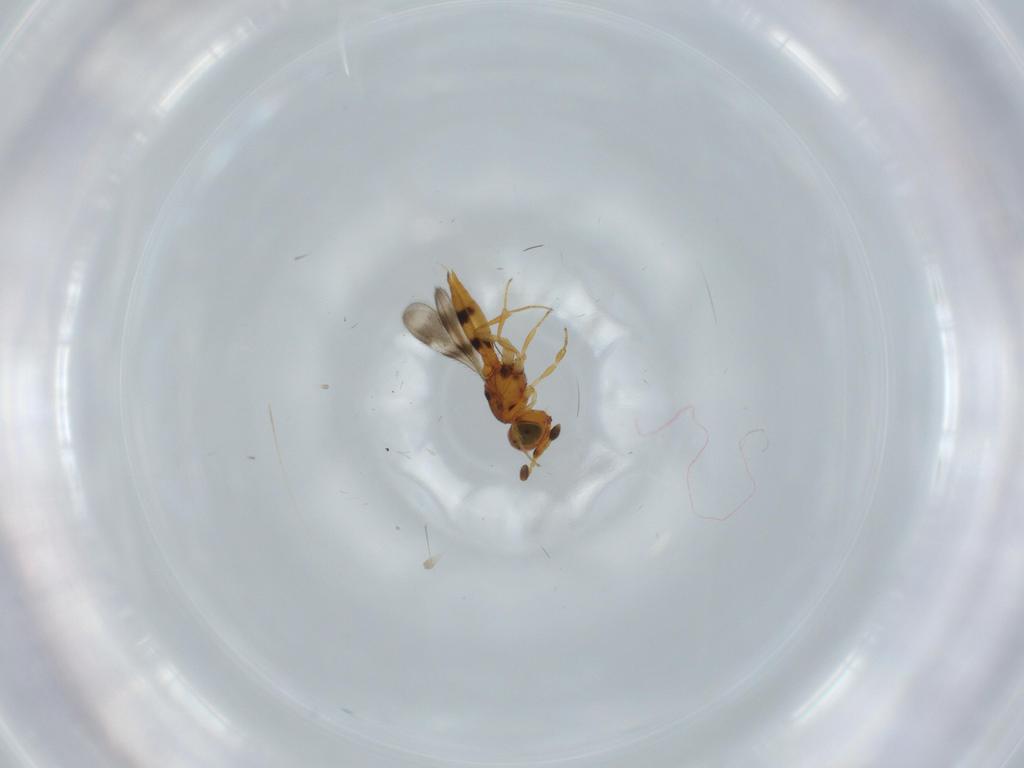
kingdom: Animalia
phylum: Arthropoda
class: Insecta
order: Hymenoptera
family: Scelionidae
